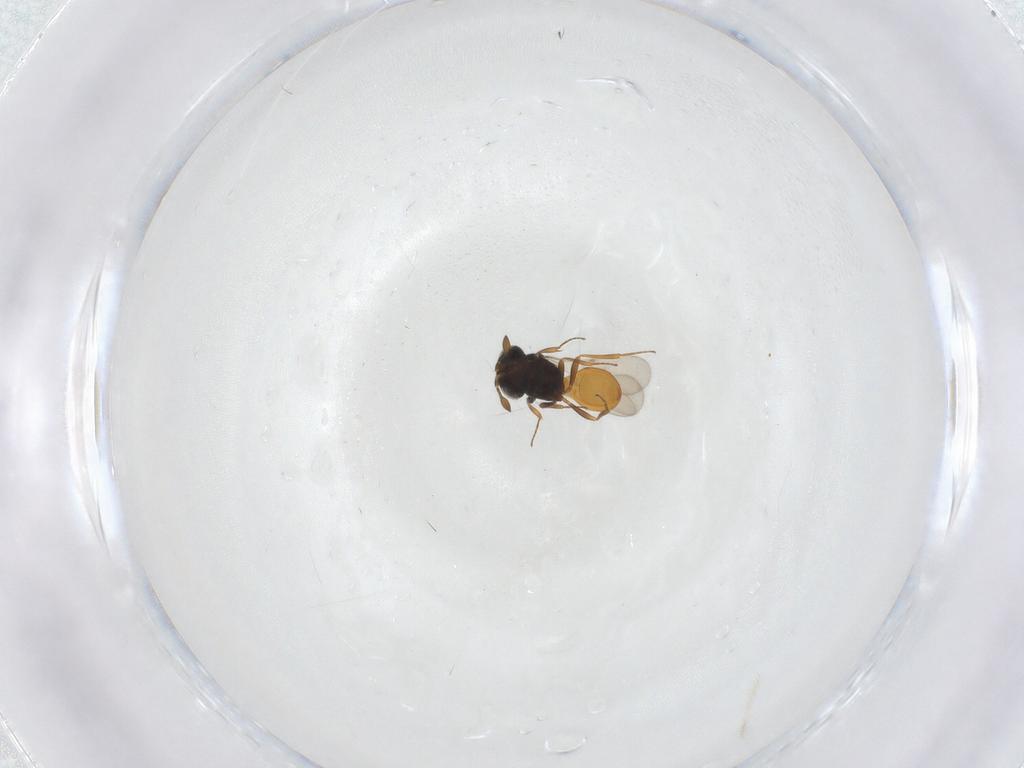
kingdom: Animalia
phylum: Arthropoda
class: Insecta
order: Hymenoptera
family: Scelionidae
